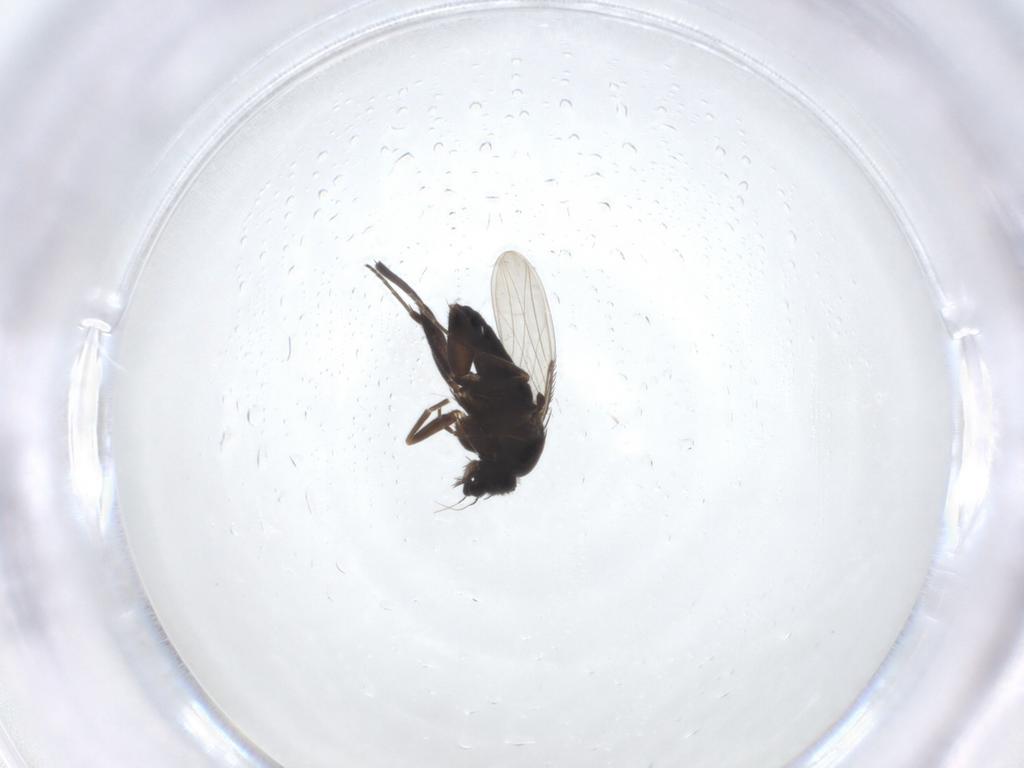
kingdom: Animalia
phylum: Arthropoda
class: Insecta
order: Diptera
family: Phoridae
